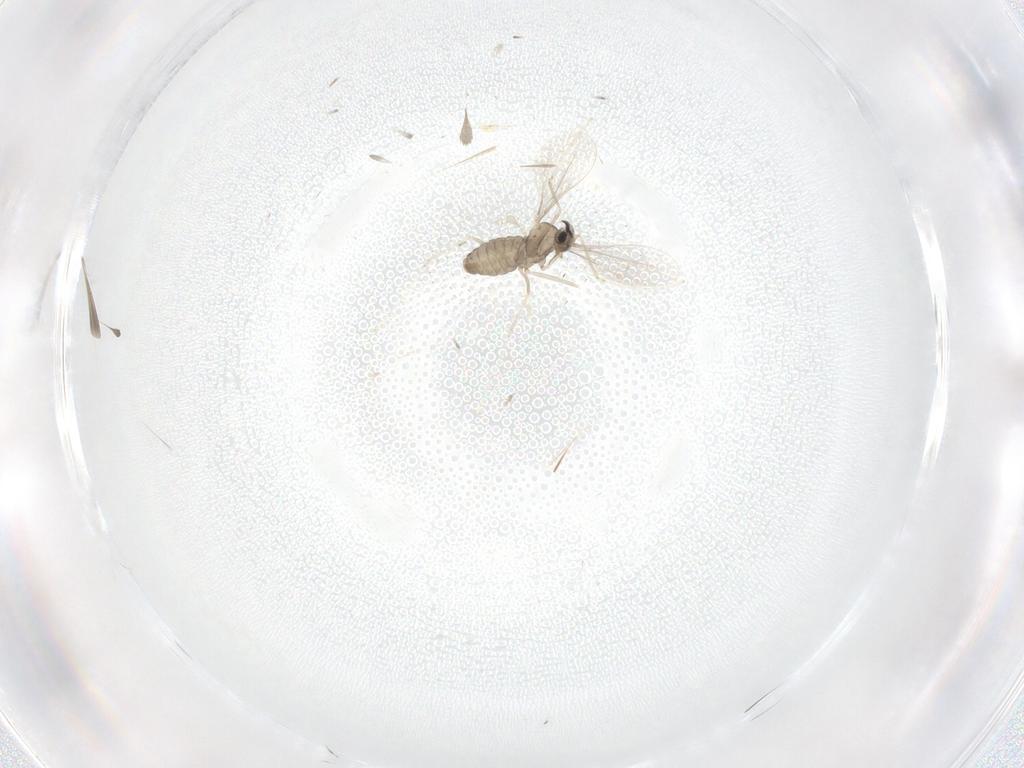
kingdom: Animalia
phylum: Arthropoda
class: Insecta
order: Diptera
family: Cecidomyiidae
